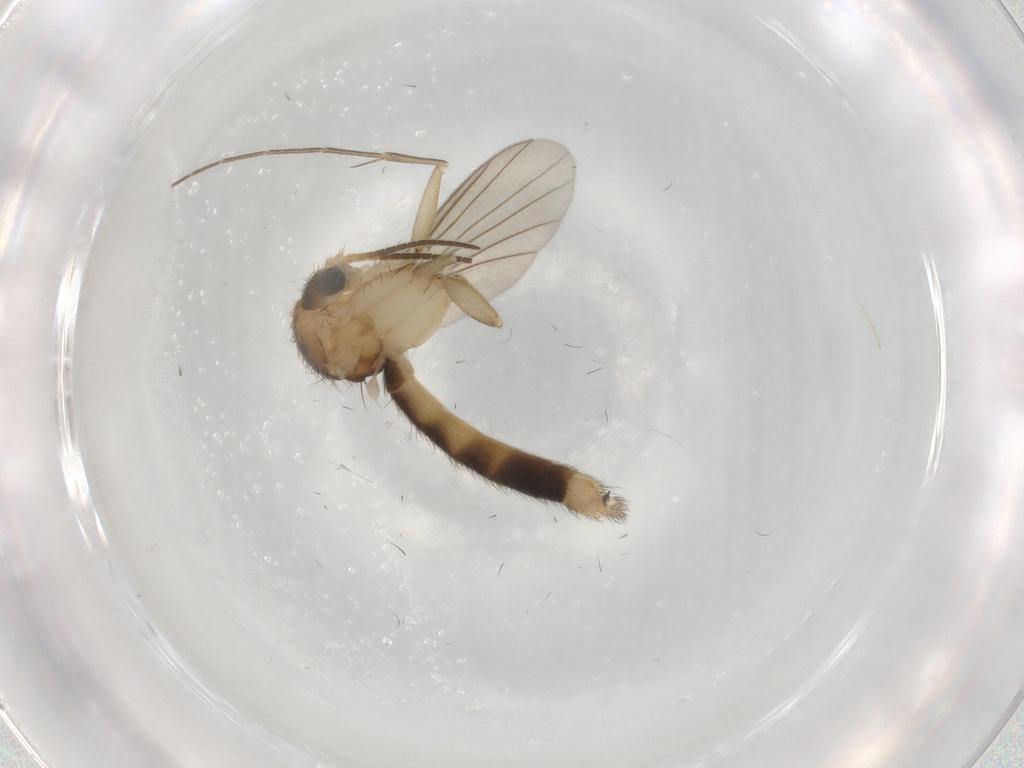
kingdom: Animalia
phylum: Arthropoda
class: Insecta
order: Diptera
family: Mycetophilidae
